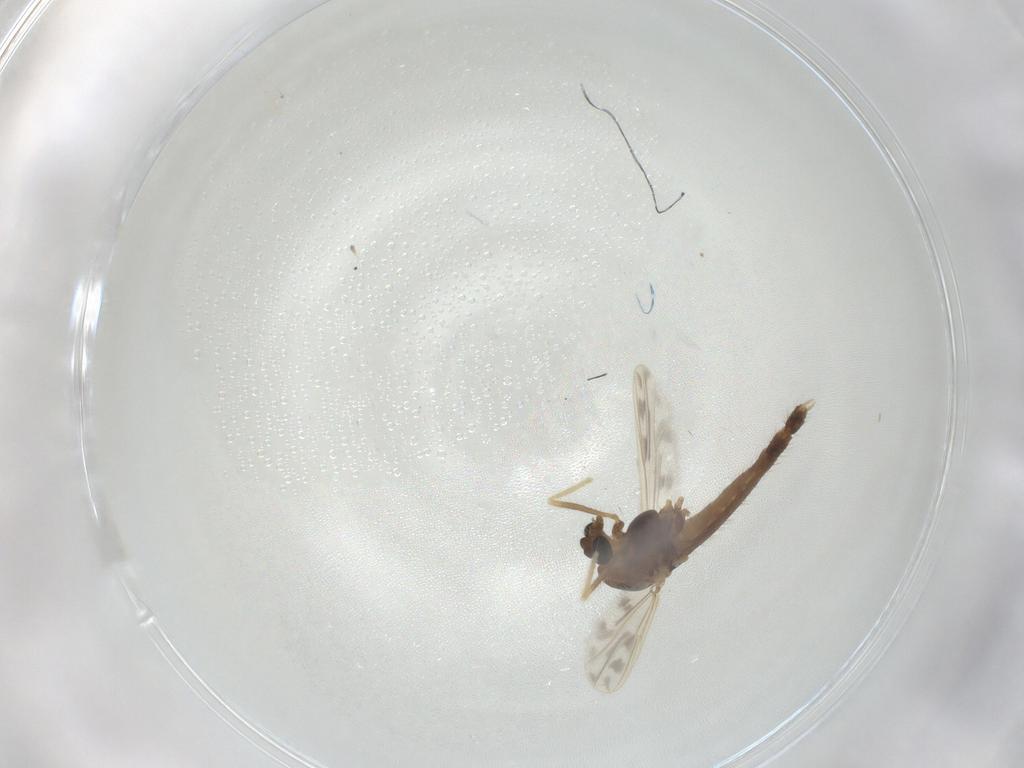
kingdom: Animalia
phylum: Arthropoda
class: Insecta
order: Diptera
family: Chironomidae
